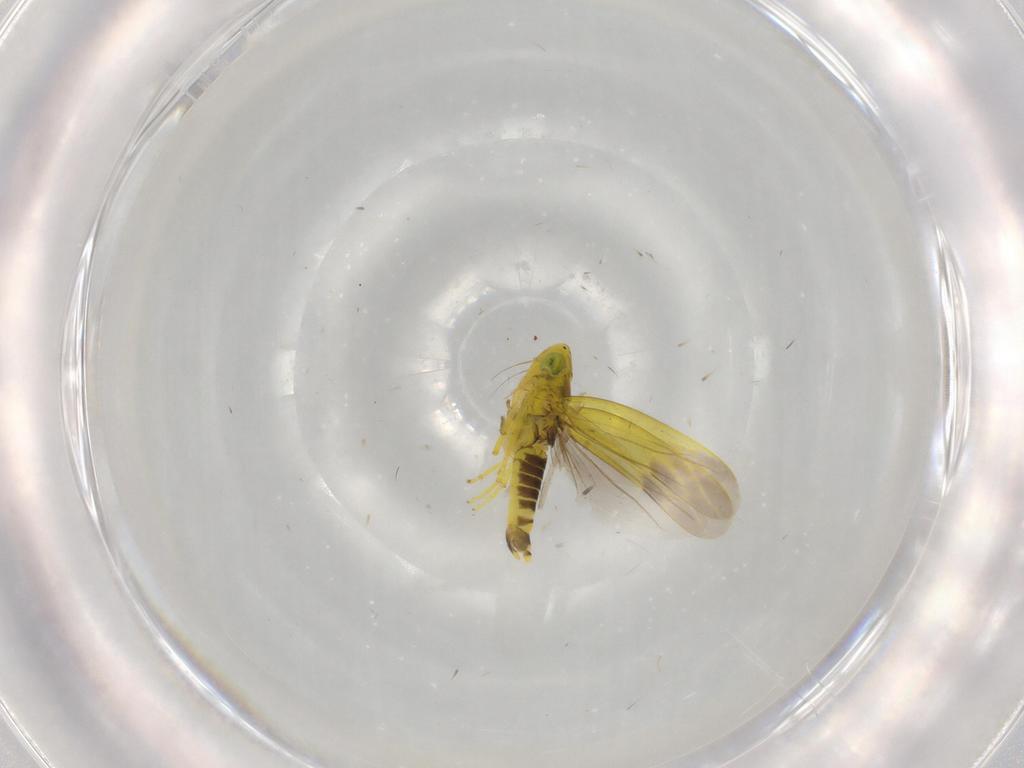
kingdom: Animalia
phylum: Arthropoda
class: Insecta
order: Hemiptera
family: Cicadellidae
